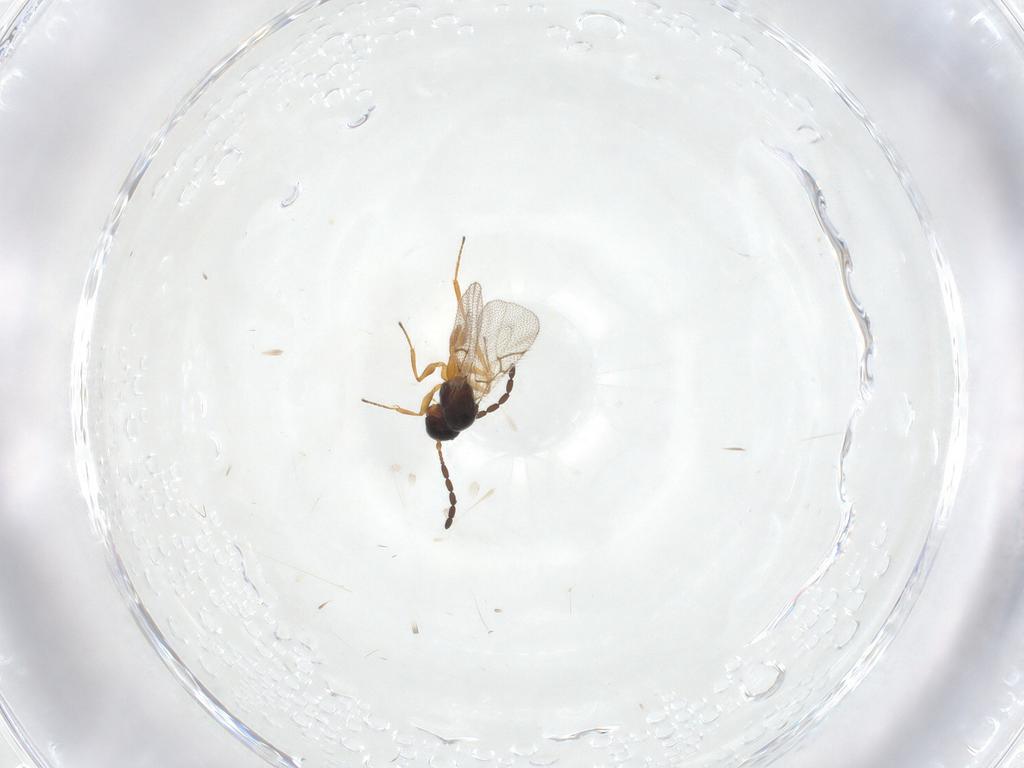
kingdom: Animalia
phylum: Arthropoda
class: Insecta
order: Hymenoptera
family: Figitidae
